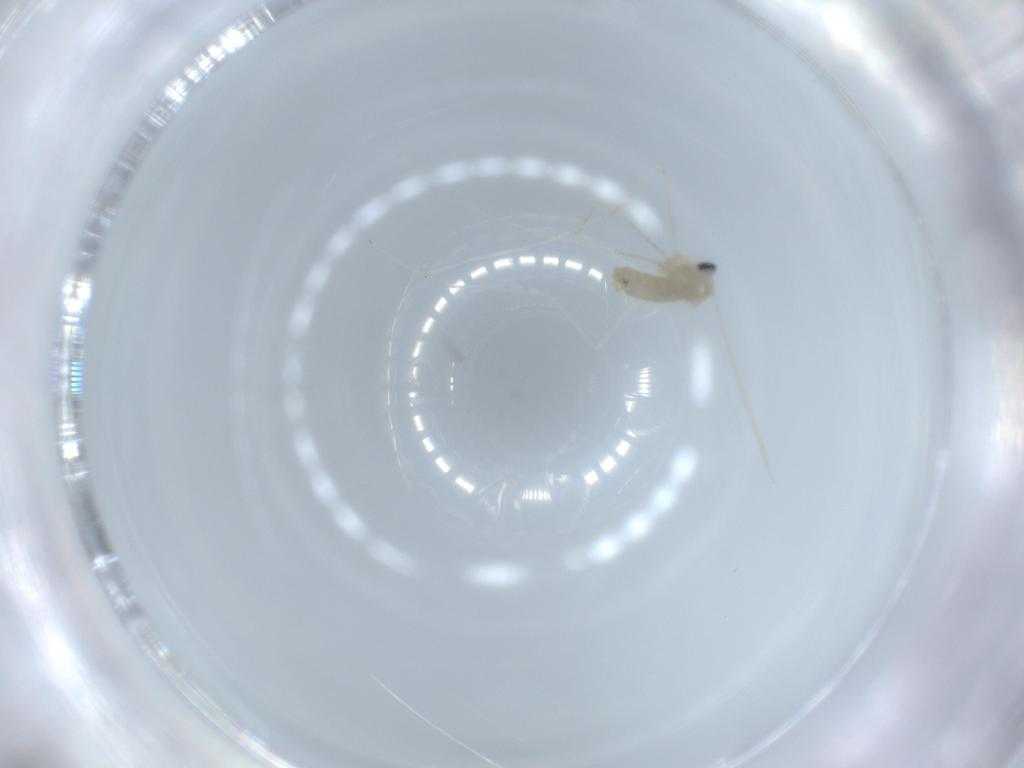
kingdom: Animalia
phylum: Arthropoda
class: Insecta
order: Diptera
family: Cecidomyiidae
